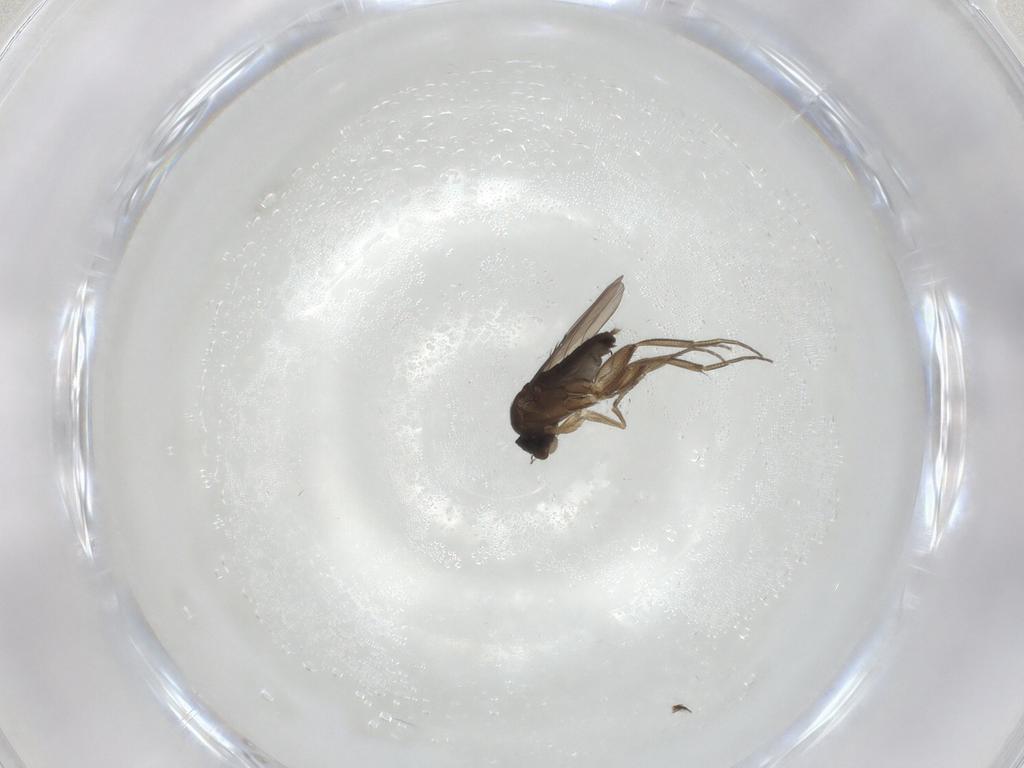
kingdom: Animalia
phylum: Arthropoda
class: Insecta
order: Diptera
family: Phoridae
